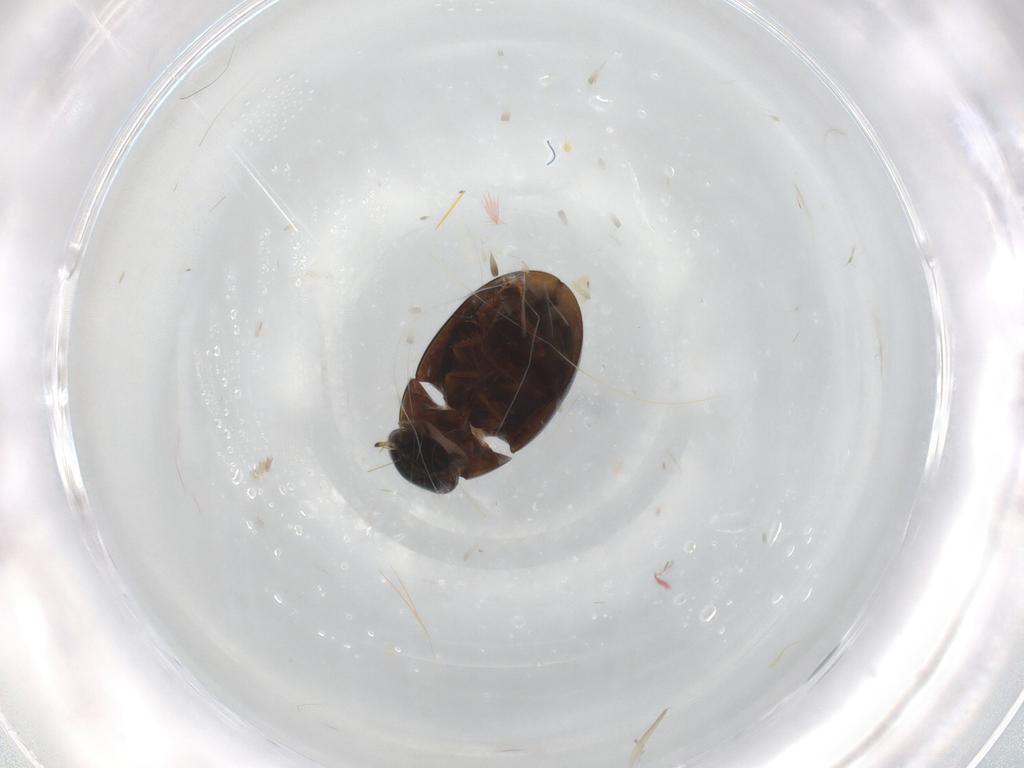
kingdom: Animalia
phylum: Arthropoda
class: Insecta
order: Coleoptera
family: Hydrophilidae
